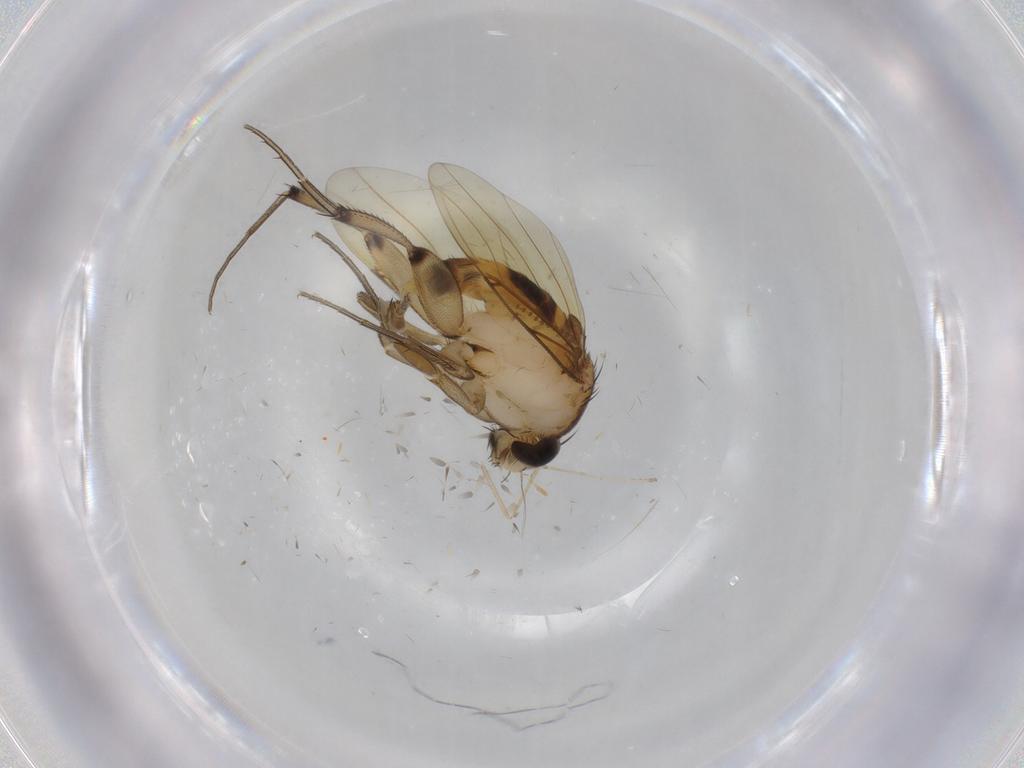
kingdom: Animalia
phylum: Arthropoda
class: Insecta
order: Diptera
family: Phoridae
